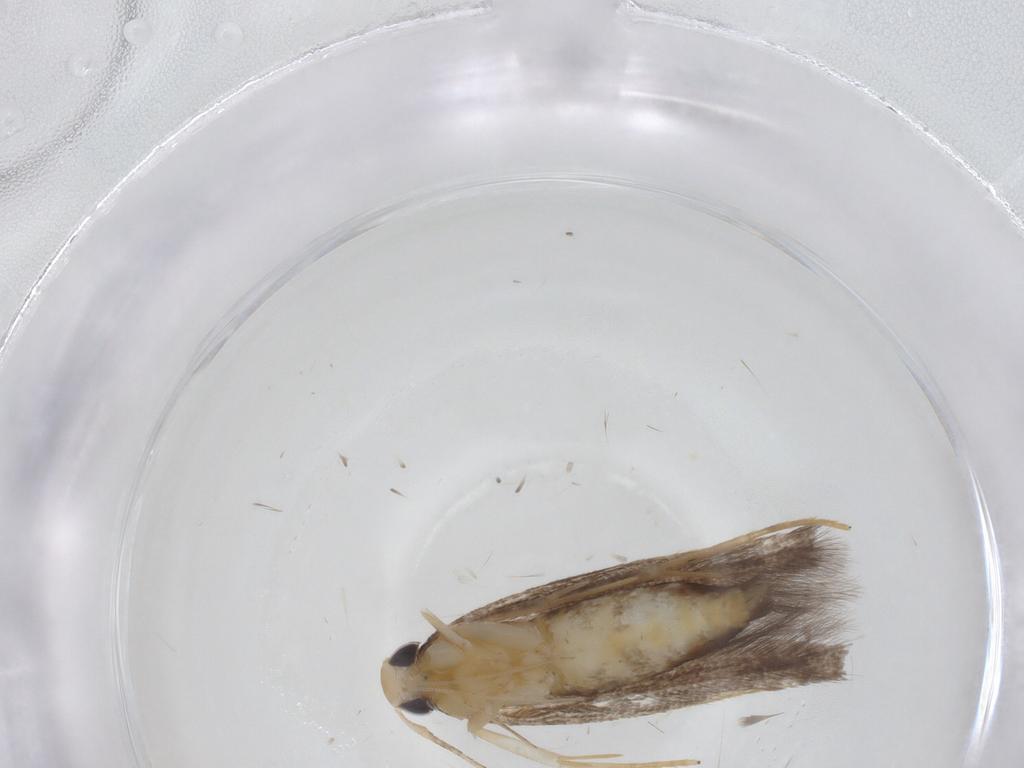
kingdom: Animalia
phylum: Arthropoda
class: Insecta
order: Lepidoptera
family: Cosmopterigidae
